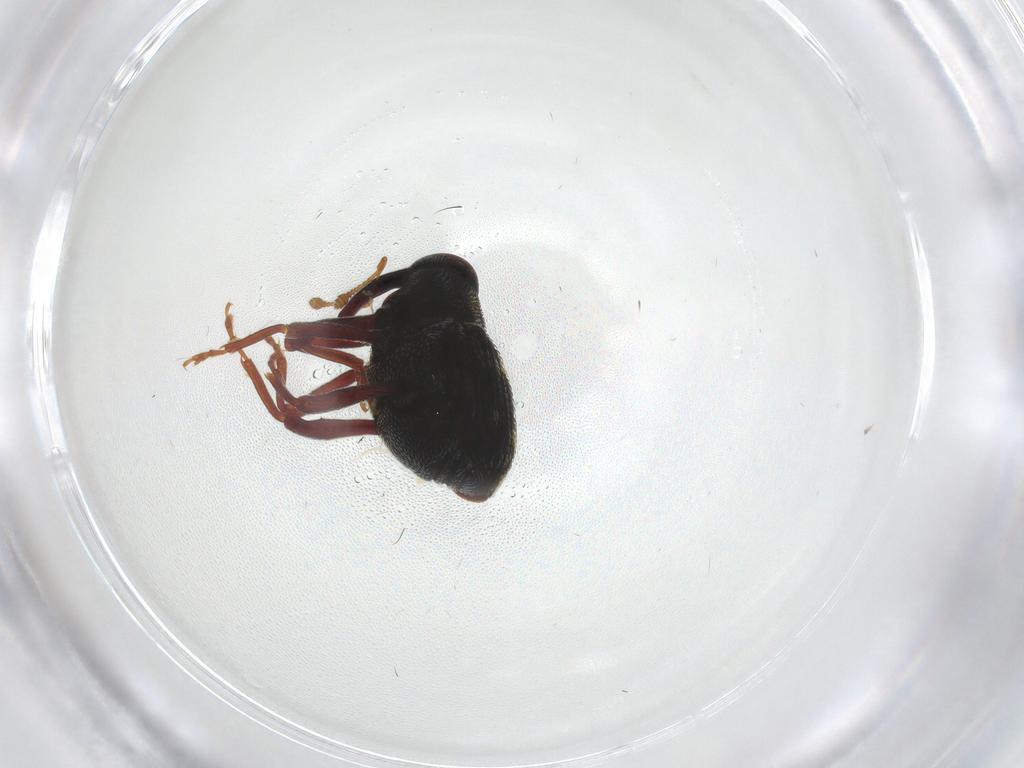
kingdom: Animalia
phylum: Arthropoda
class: Insecta
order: Coleoptera
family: Curculionidae
